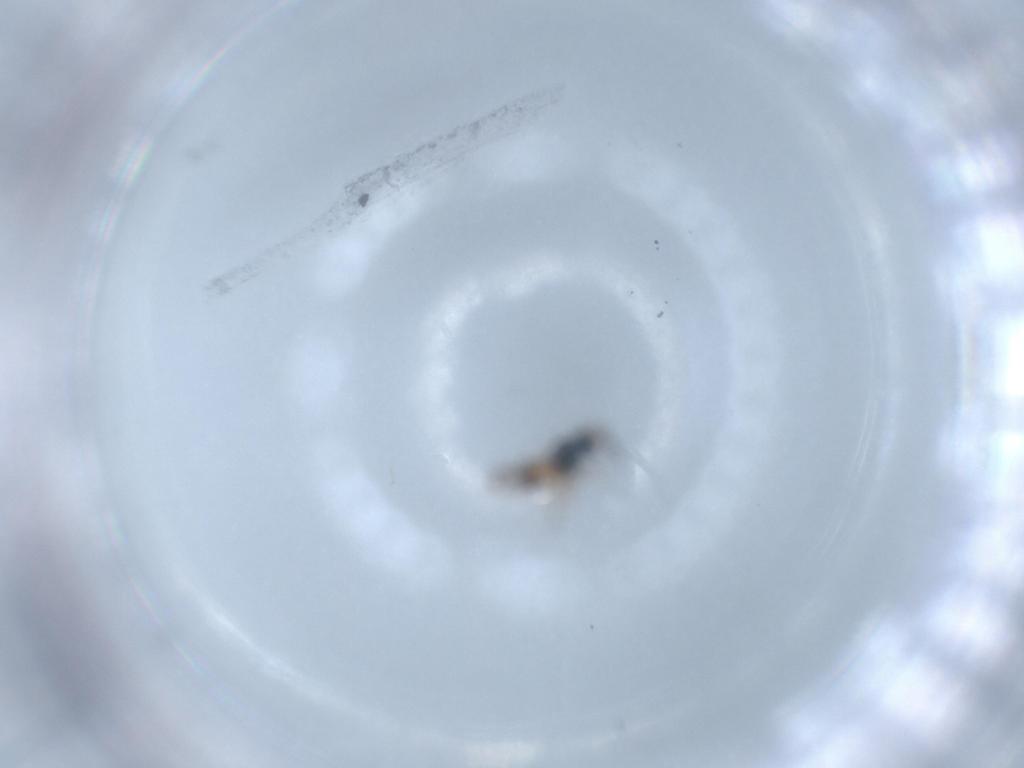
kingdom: Animalia
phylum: Arthropoda
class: Insecta
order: Hymenoptera
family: Scelionidae
